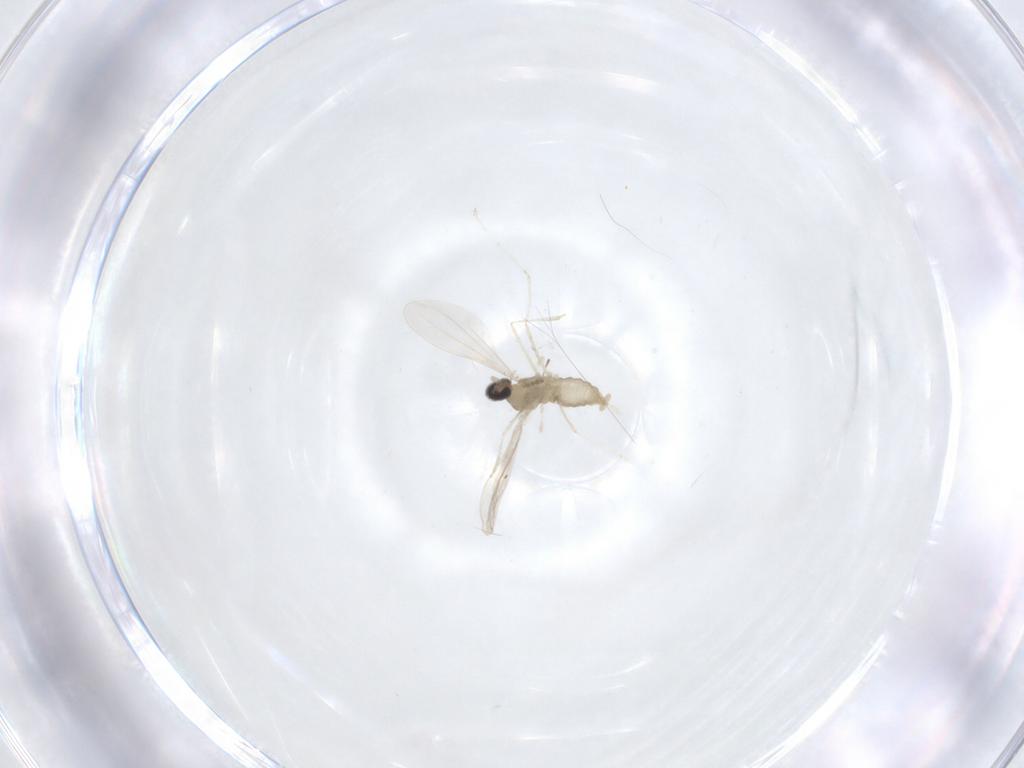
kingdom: Animalia
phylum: Arthropoda
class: Insecta
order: Diptera
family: Cecidomyiidae
